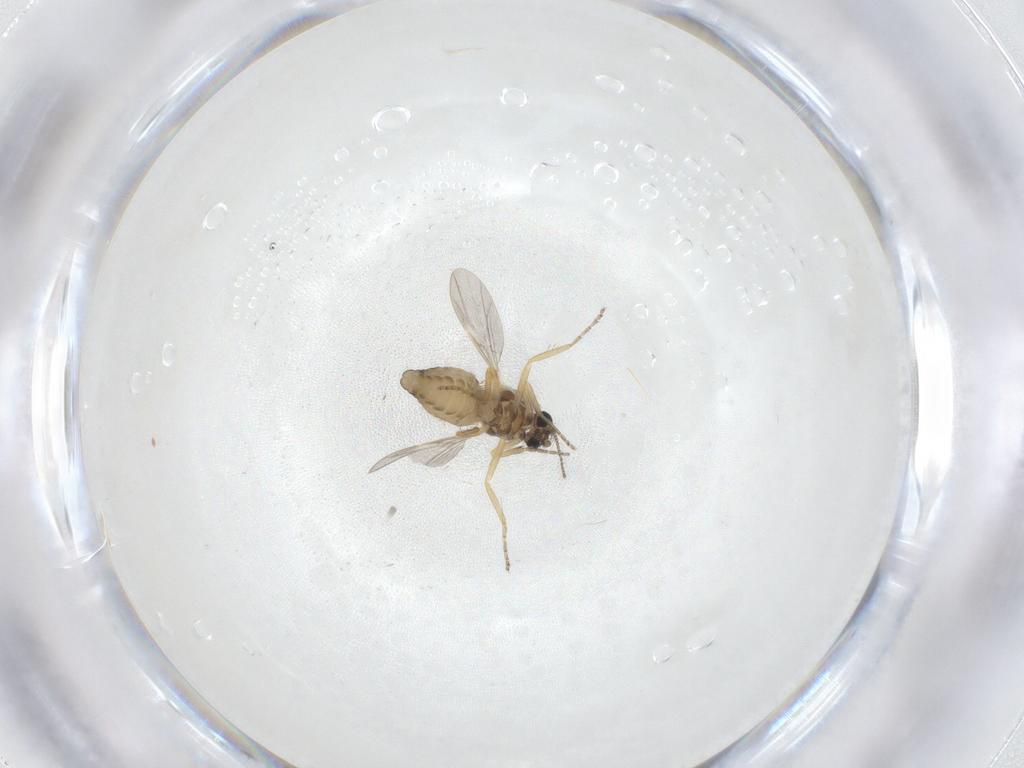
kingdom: Animalia
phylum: Arthropoda
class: Insecta
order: Diptera
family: Ceratopogonidae
